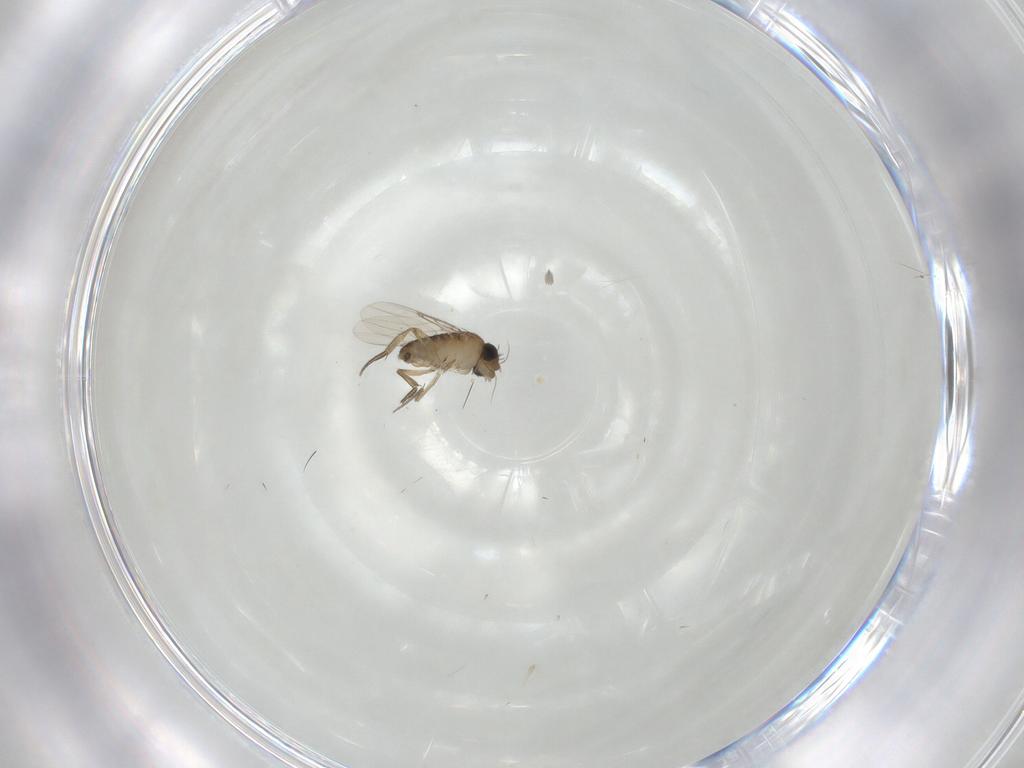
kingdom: Animalia
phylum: Arthropoda
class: Insecta
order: Diptera
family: Phoridae
